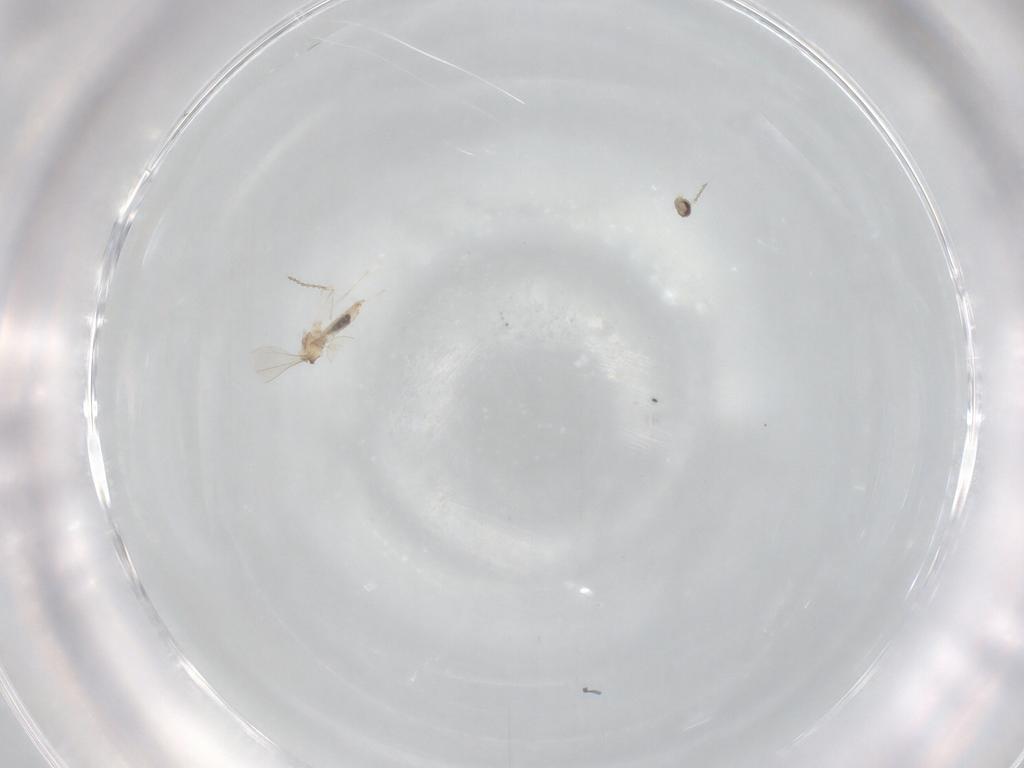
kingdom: Animalia
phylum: Arthropoda
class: Insecta
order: Diptera
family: Cecidomyiidae
